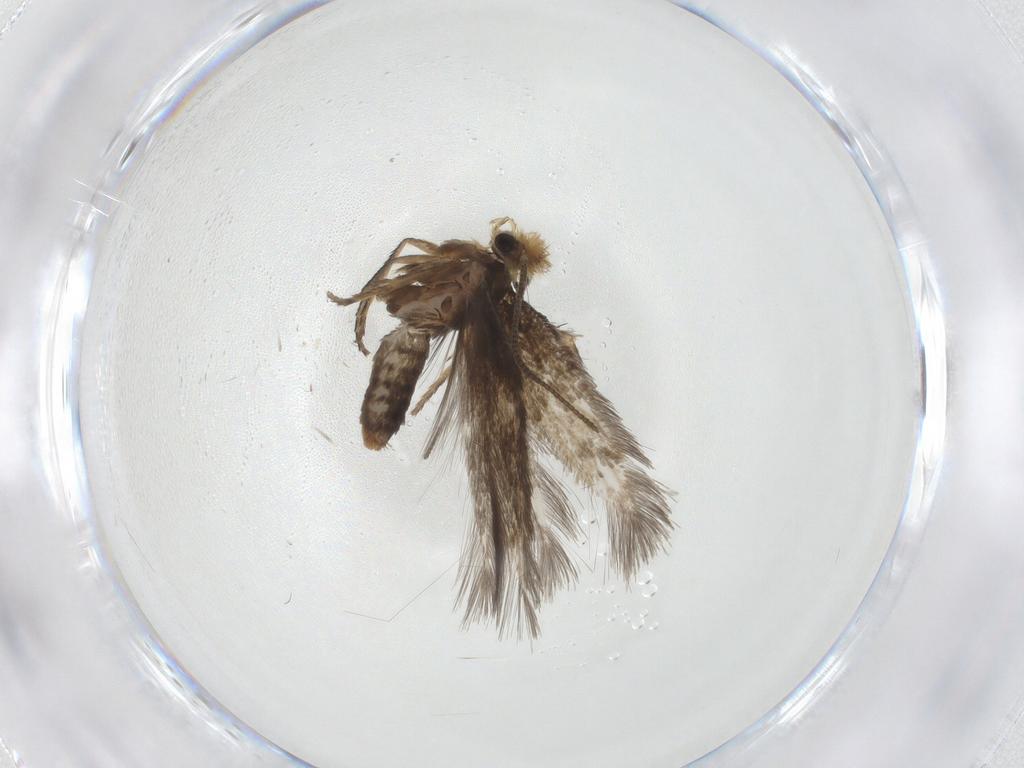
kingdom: Animalia
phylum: Arthropoda
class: Insecta
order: Lepidoptera
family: Nepticulidae
